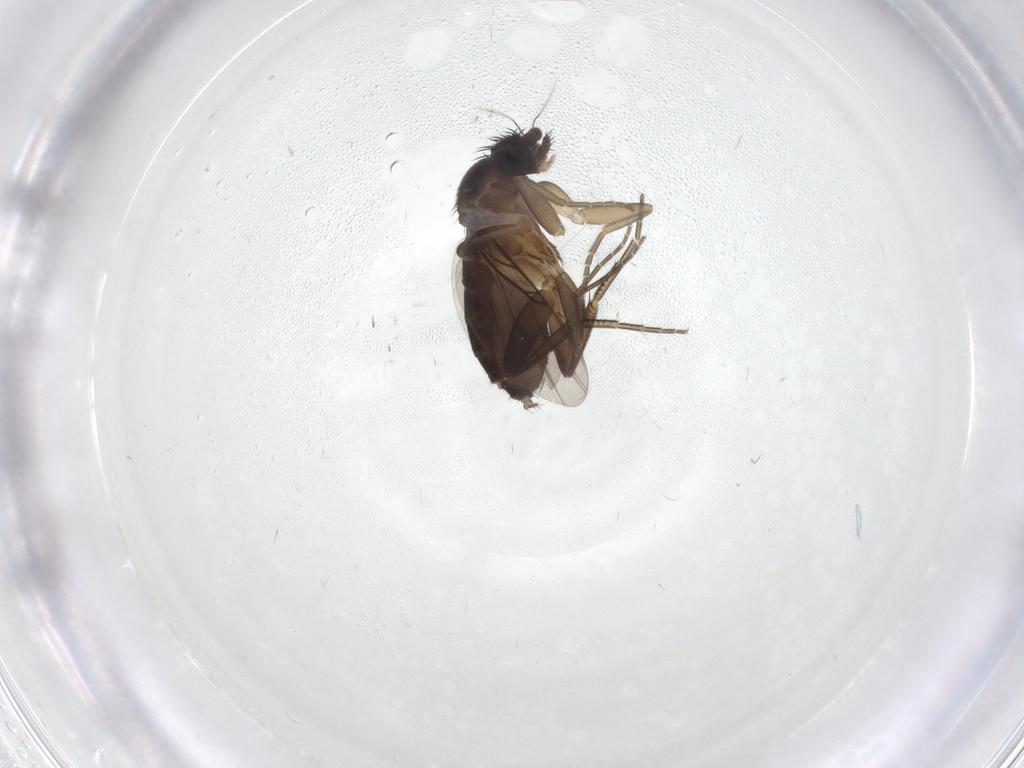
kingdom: Animalia
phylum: Arthropoda
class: Insecta
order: Diptera
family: Phoridae
